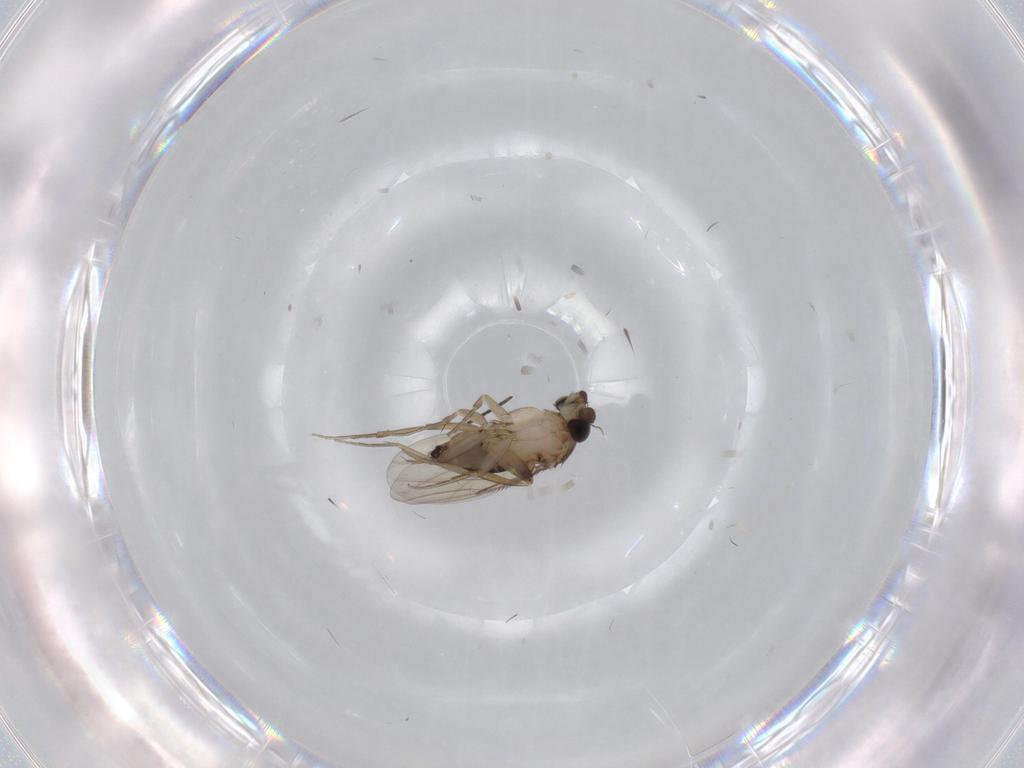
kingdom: Animalia
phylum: Arthropoda
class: Insecta
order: Diptera
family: Phoridae
